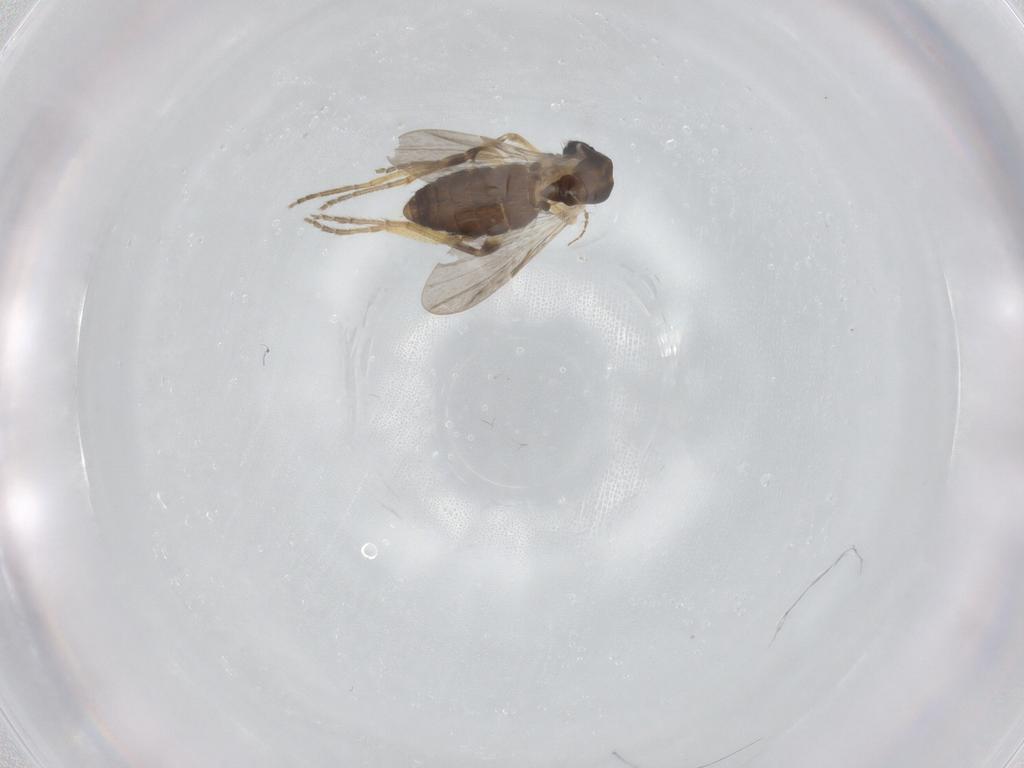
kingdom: Animalia
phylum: Arthropoda
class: Insecta
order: Diptera
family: Ceratopogonidae
